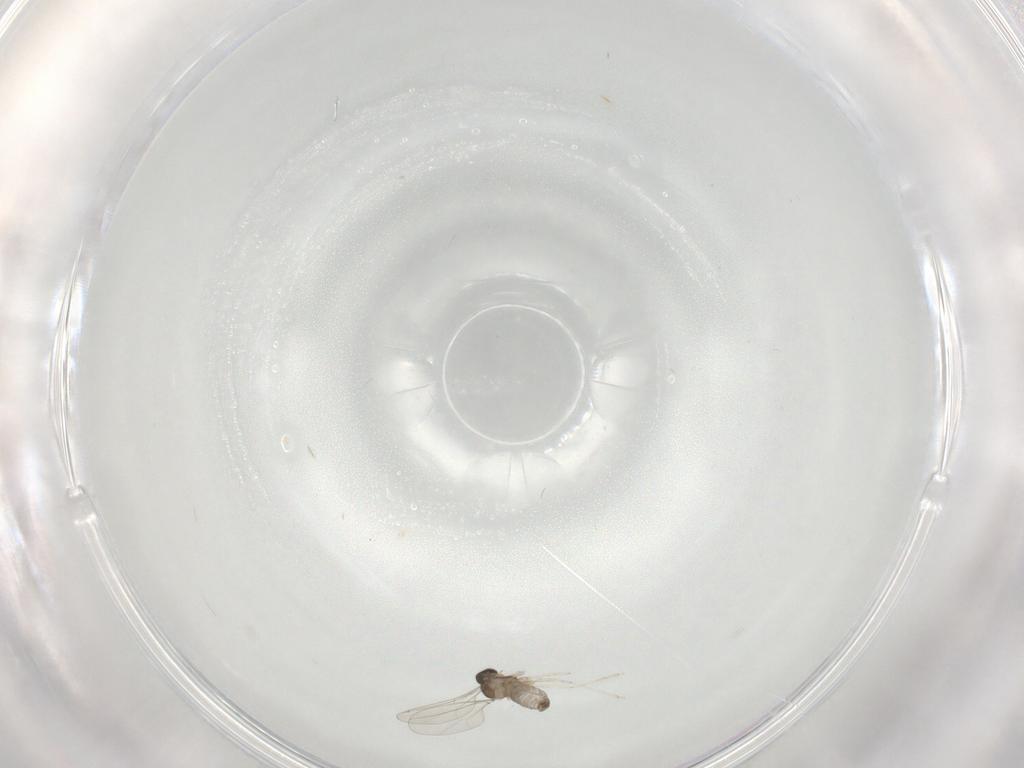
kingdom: Animalia
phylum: Arthropoda
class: Insecta
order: Diptera
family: Cecidomyiidae
